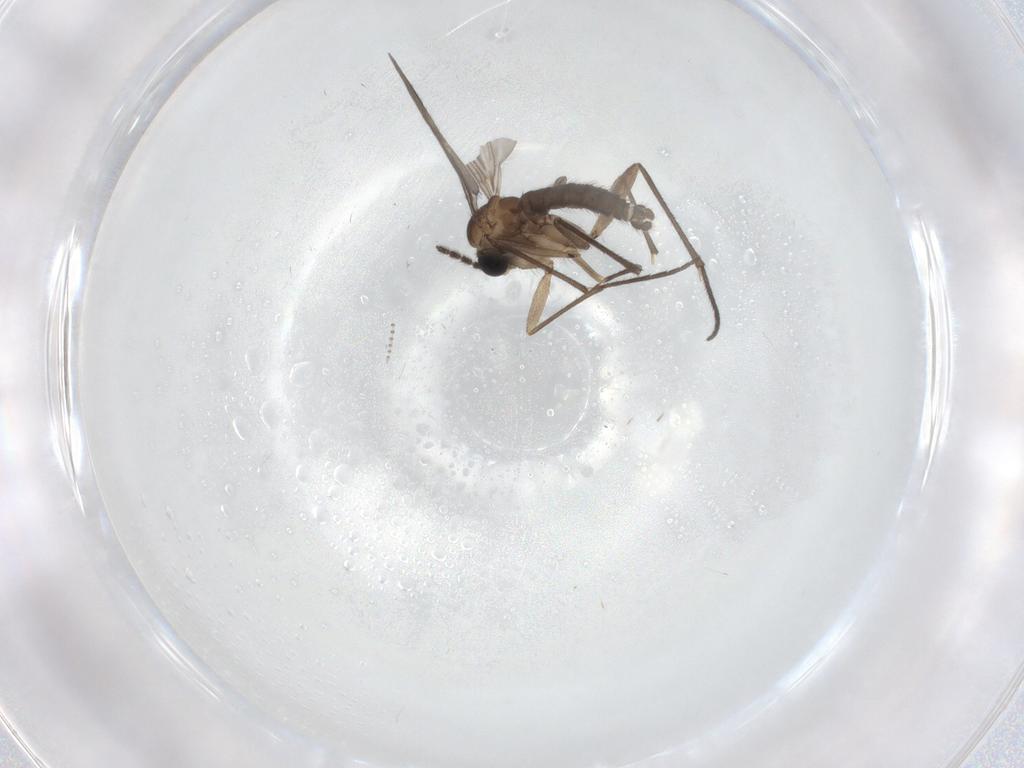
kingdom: Animalia
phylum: Arthropoda
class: Insecta
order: Diptera
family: Sciaridae
